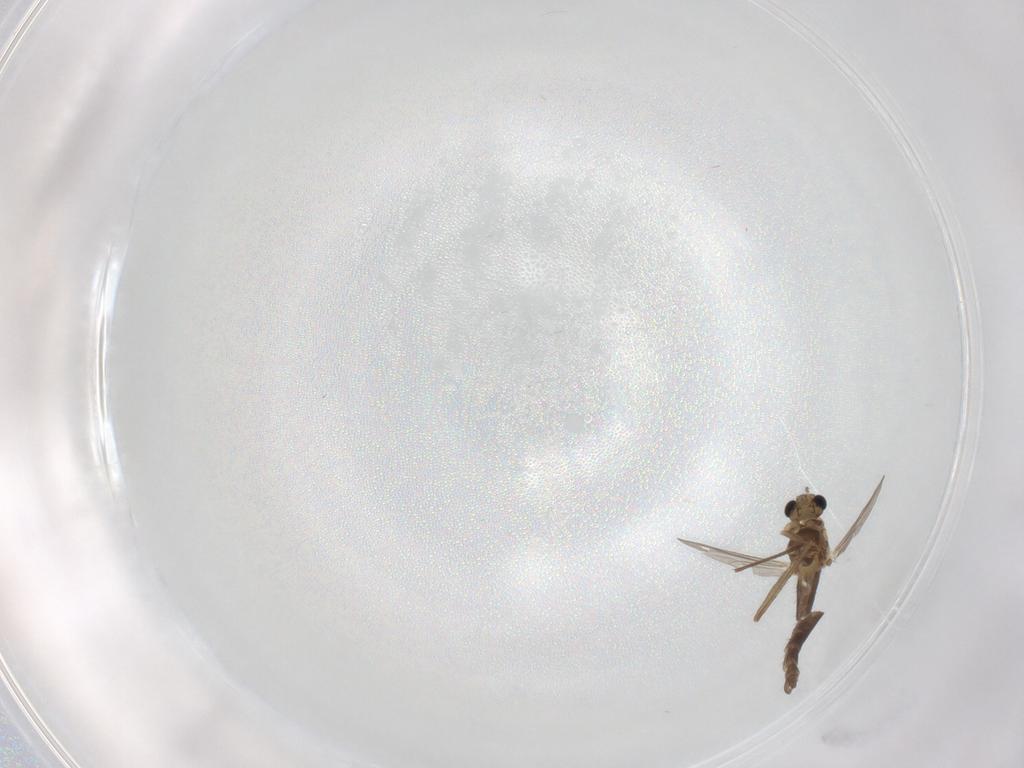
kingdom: Animalia
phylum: Arthropoda
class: Insecta
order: Diptera
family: Chironomidae
